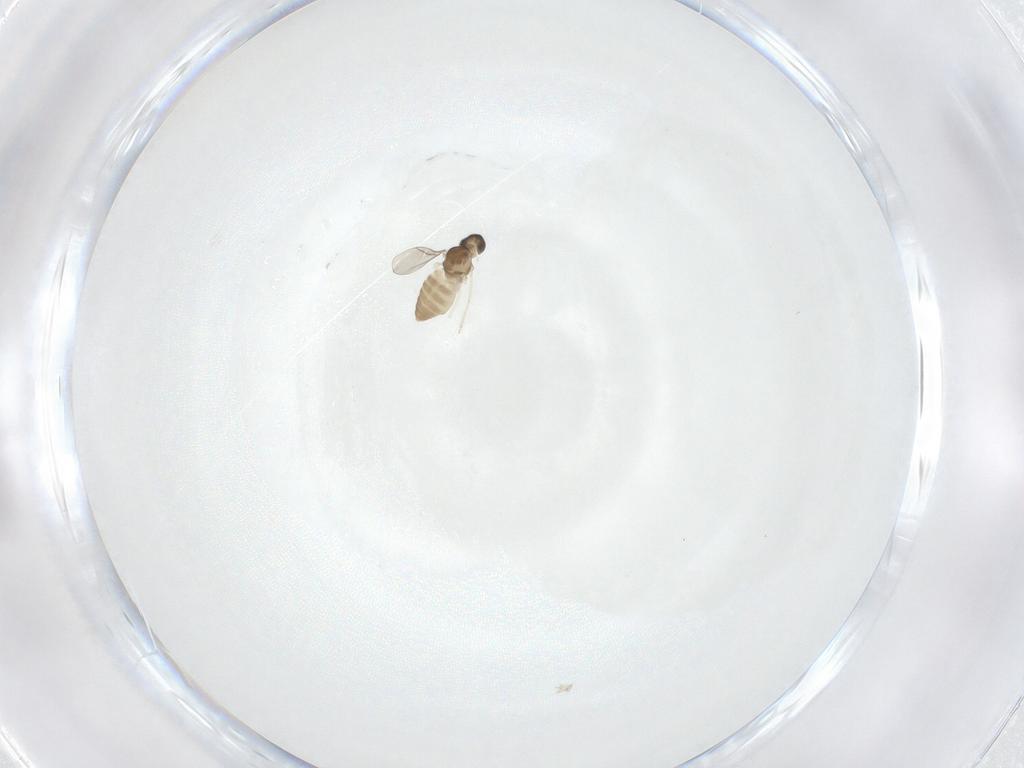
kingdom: Animalia
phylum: Arthropoda
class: Insecta
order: Diptera
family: Cecidomyiidae
